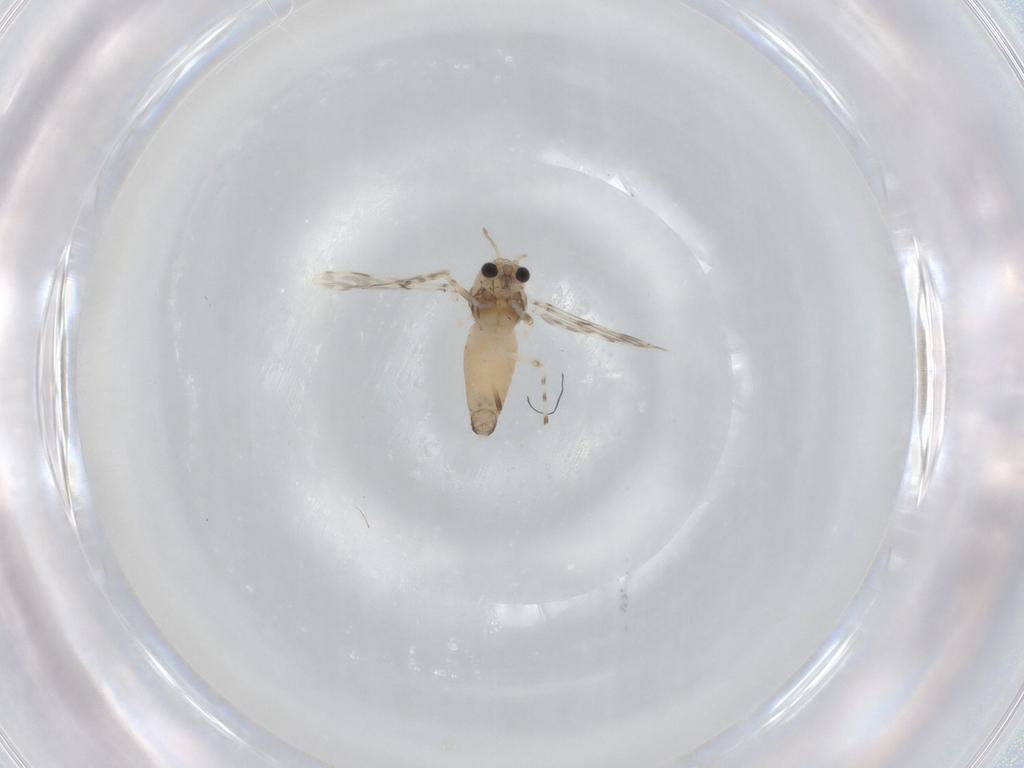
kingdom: Animalia
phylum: Arthropoda
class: Insecta
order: Diptera
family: Chironomidae
